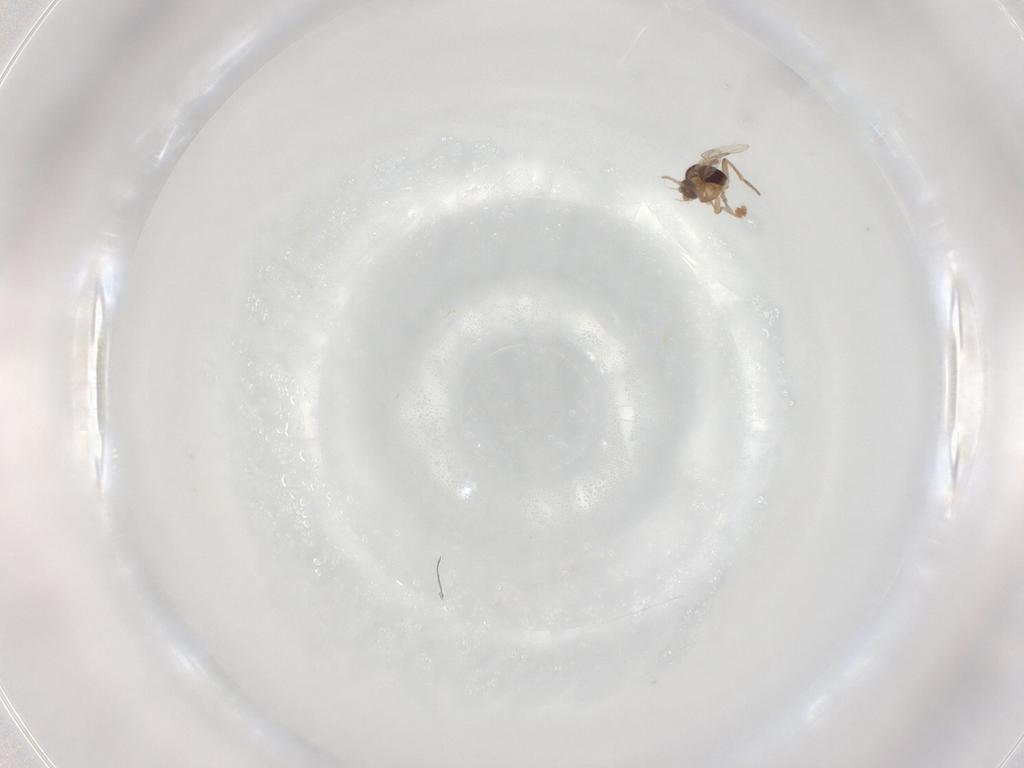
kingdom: Animalia
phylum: Arthropoda
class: Insecta
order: Diptera
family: Phoridae
